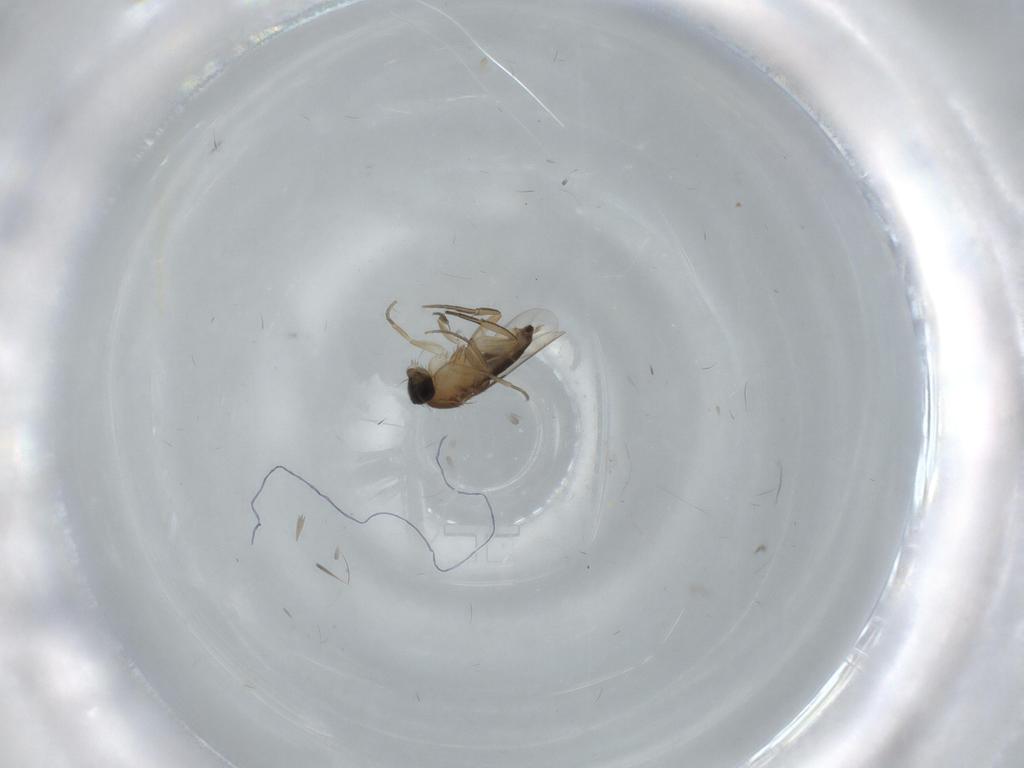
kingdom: Animalia
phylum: Arthropoda
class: Insecta
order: Diptera
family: Phoridae
